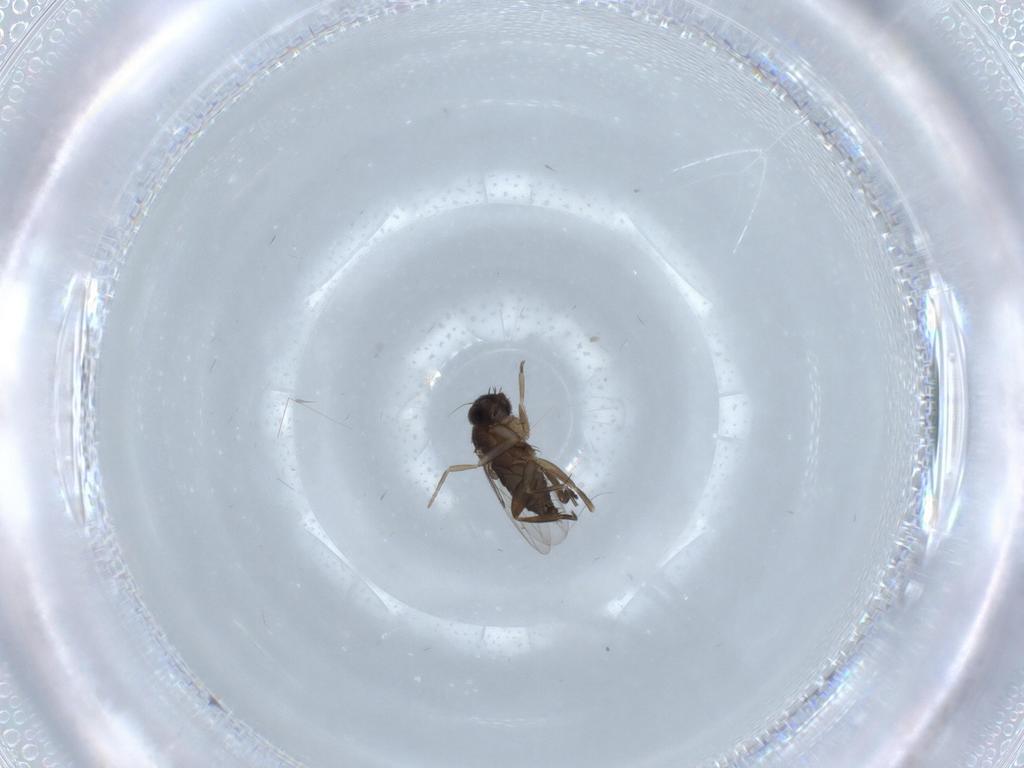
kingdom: Animalia
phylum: Arthropoda
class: Insecta
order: Diptera
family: Phoridae
